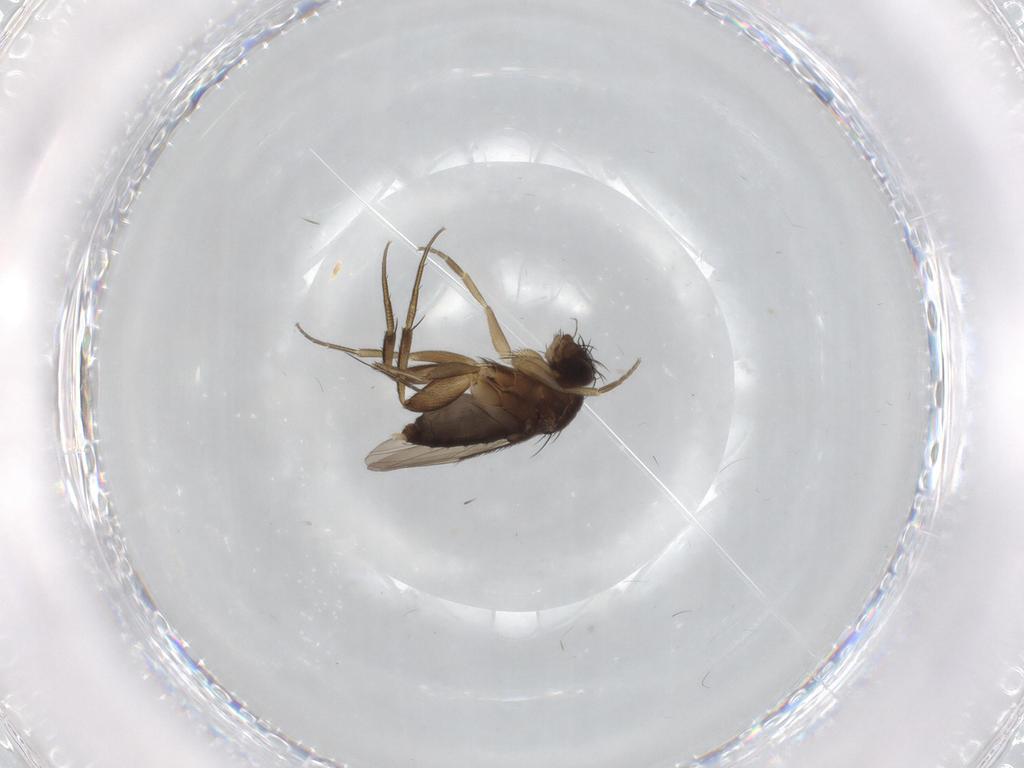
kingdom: Animalia
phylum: Arthropoda
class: Insecta
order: Diptera
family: Phoridae
